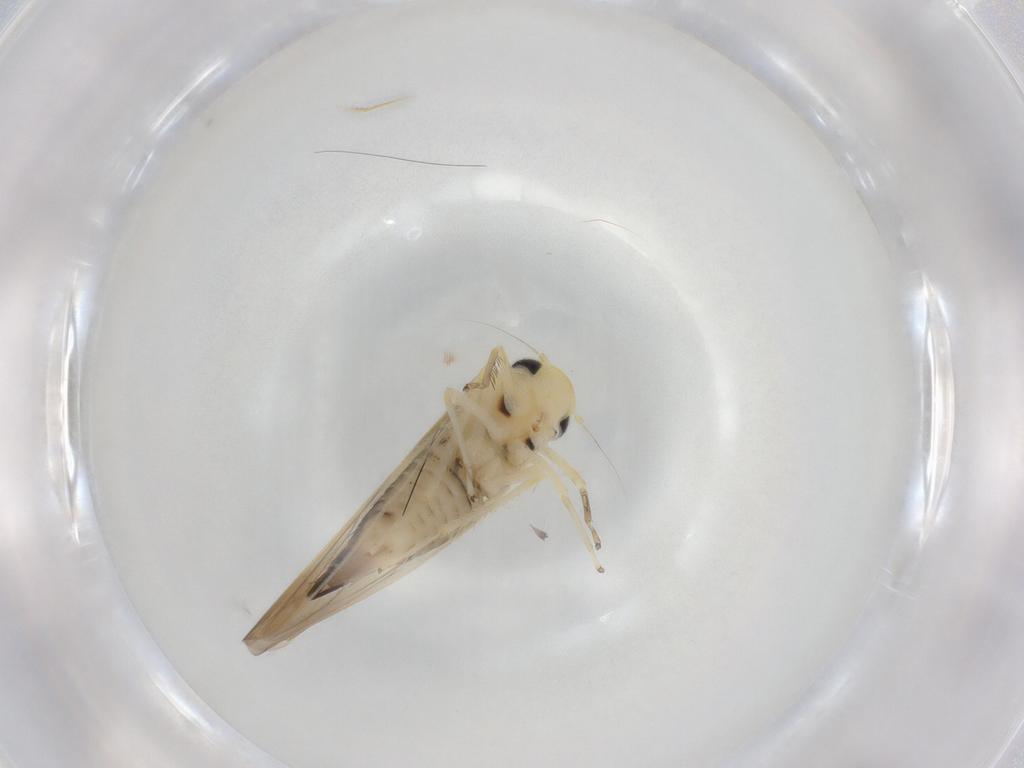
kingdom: Animalia
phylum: Arthropoda
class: Insecta
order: Hemiptera
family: Cicadellidae
